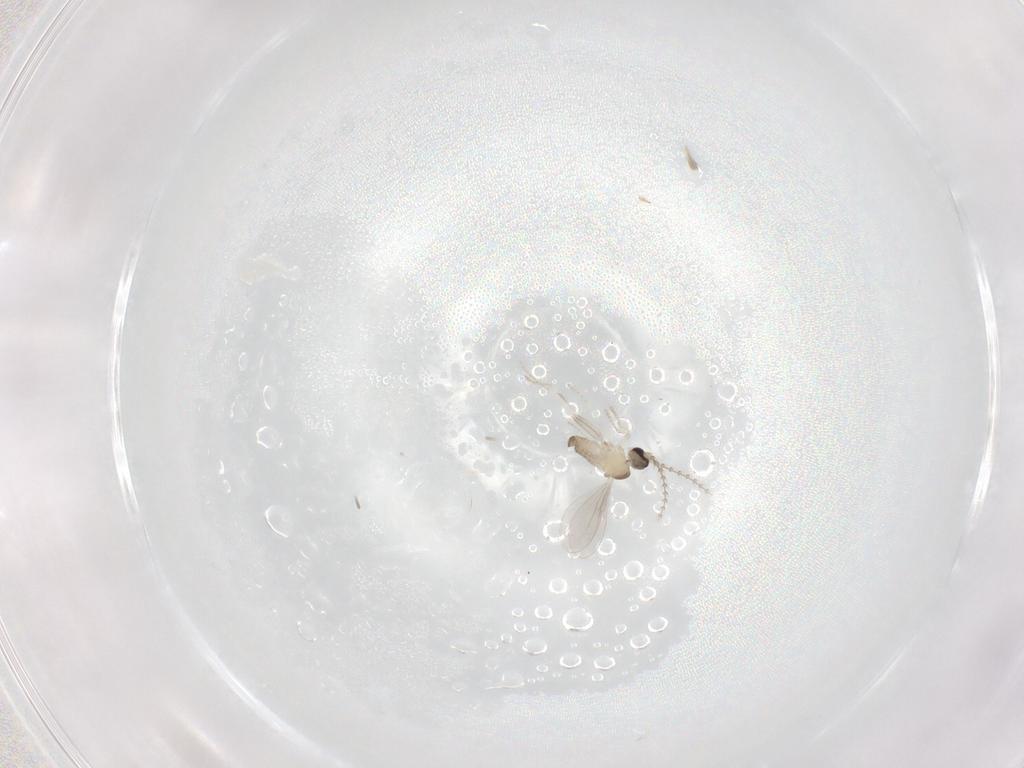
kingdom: Animalia
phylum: Arthropoda
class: Insecta
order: Diptera
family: Cecidomyiidae
